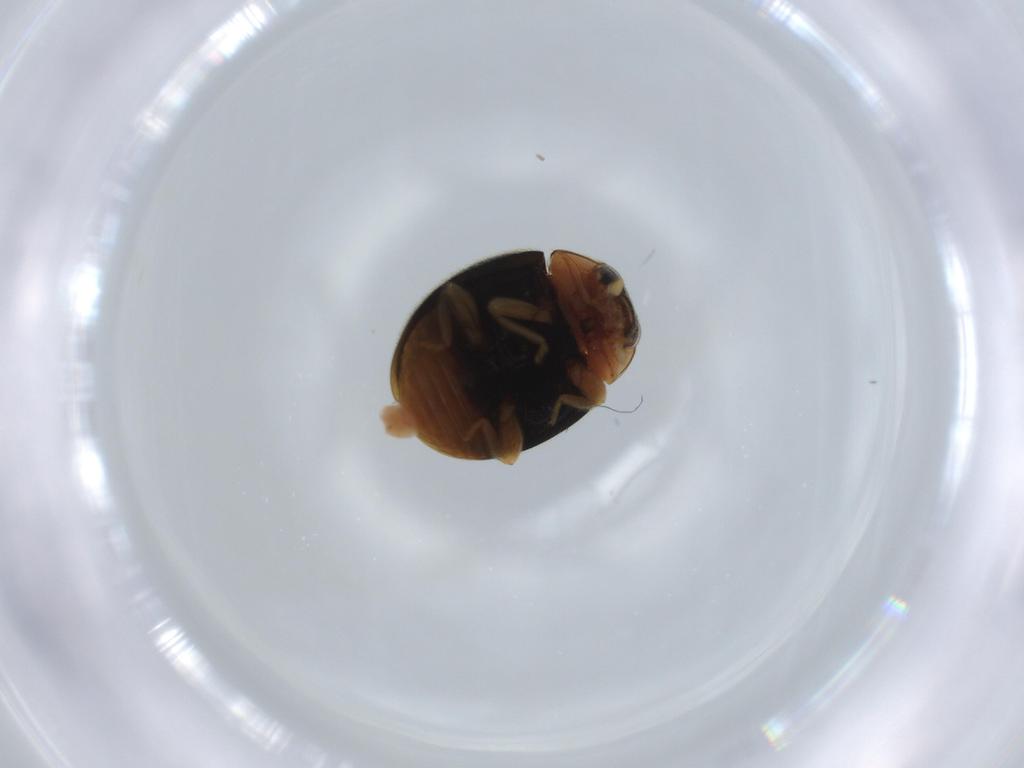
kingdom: Animalia
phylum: Arthropoda
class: Insecta
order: Coleoptera
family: Coccinellidae
